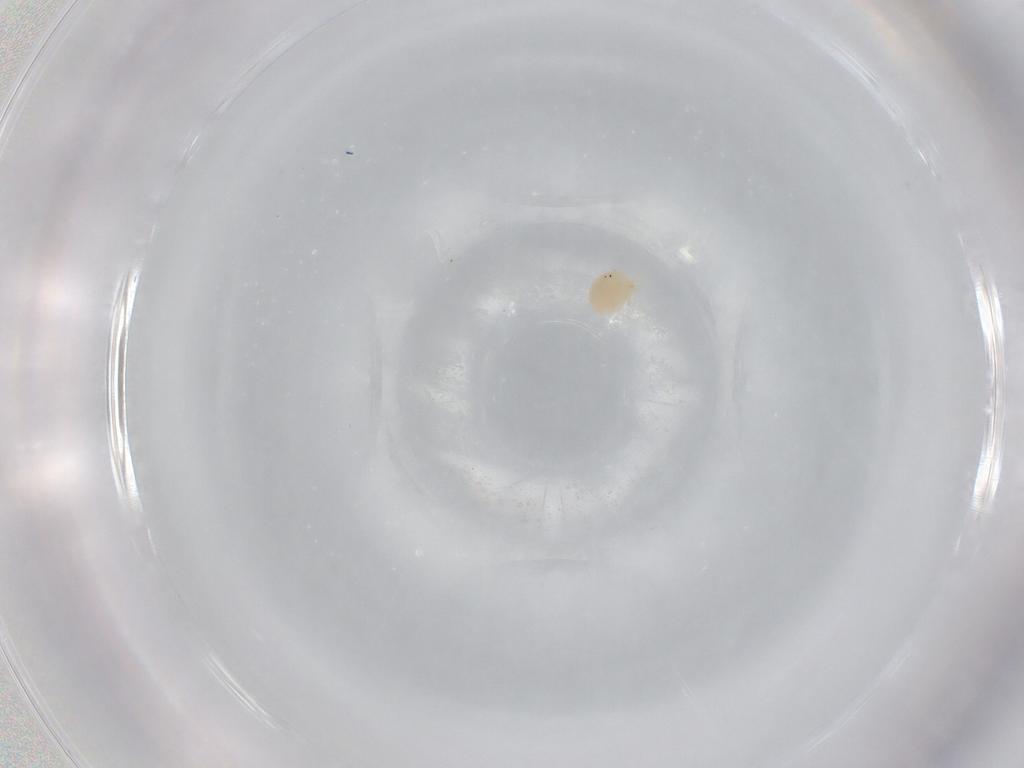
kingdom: Animalia
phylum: Arthropoda
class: Arachnida
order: Trombidiformes
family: Hydryphantidae
